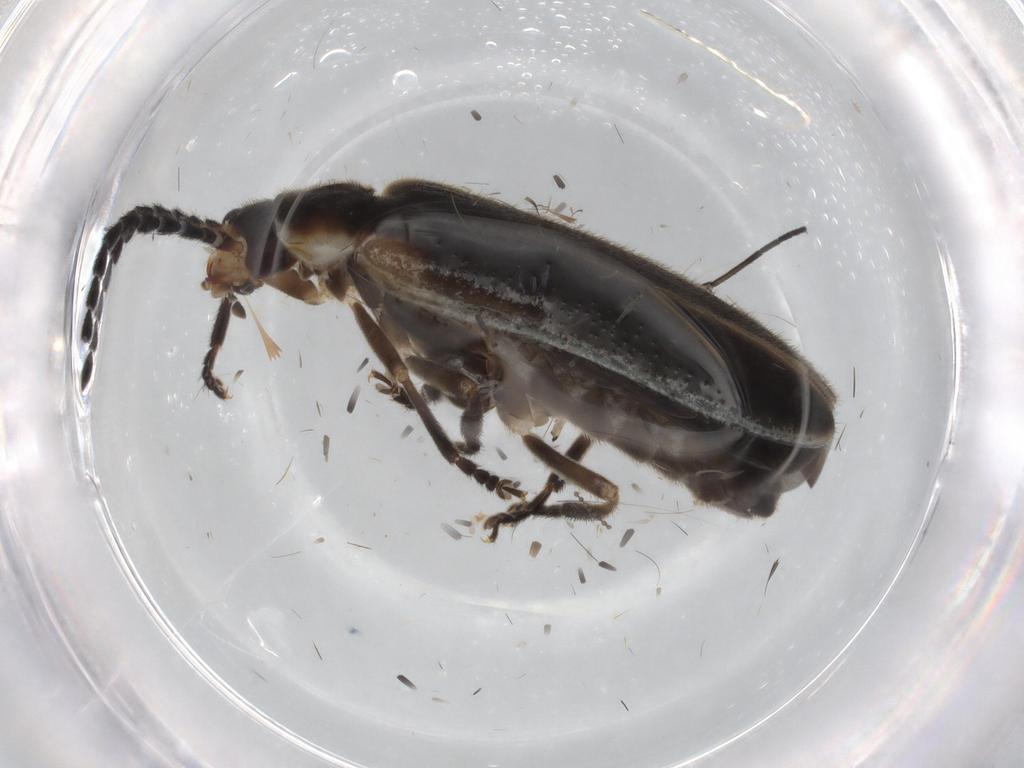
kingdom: Animalia
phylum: Arthropoda
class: Insecta
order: Coleoptera
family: Cantharidae
